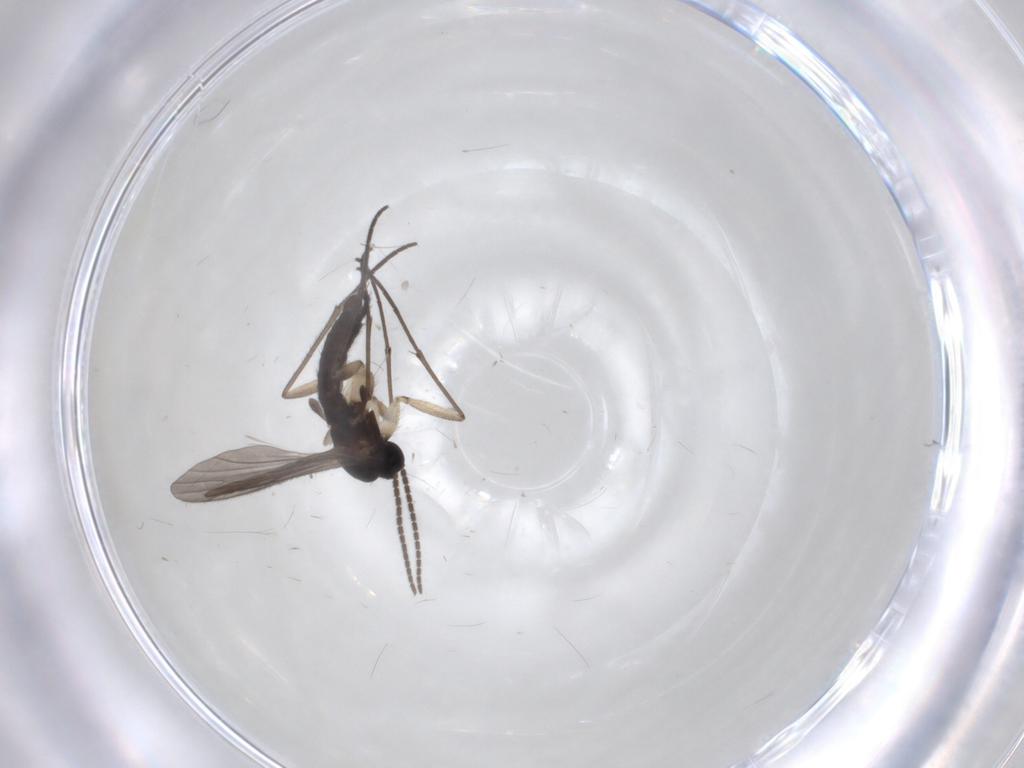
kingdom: Animalia
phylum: Arthropoda
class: Insecta
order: Diptera
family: Sciaridae
